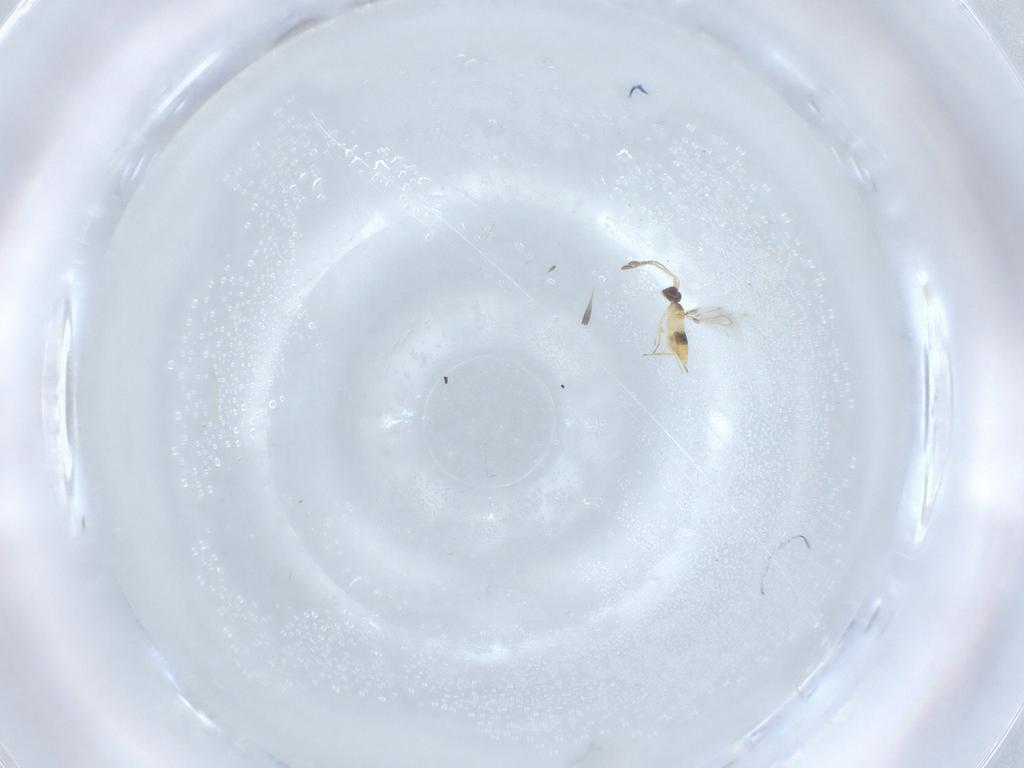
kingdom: Animalia
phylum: Arthropoda
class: Insecta
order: Hymenoptera
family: Mymaridae
